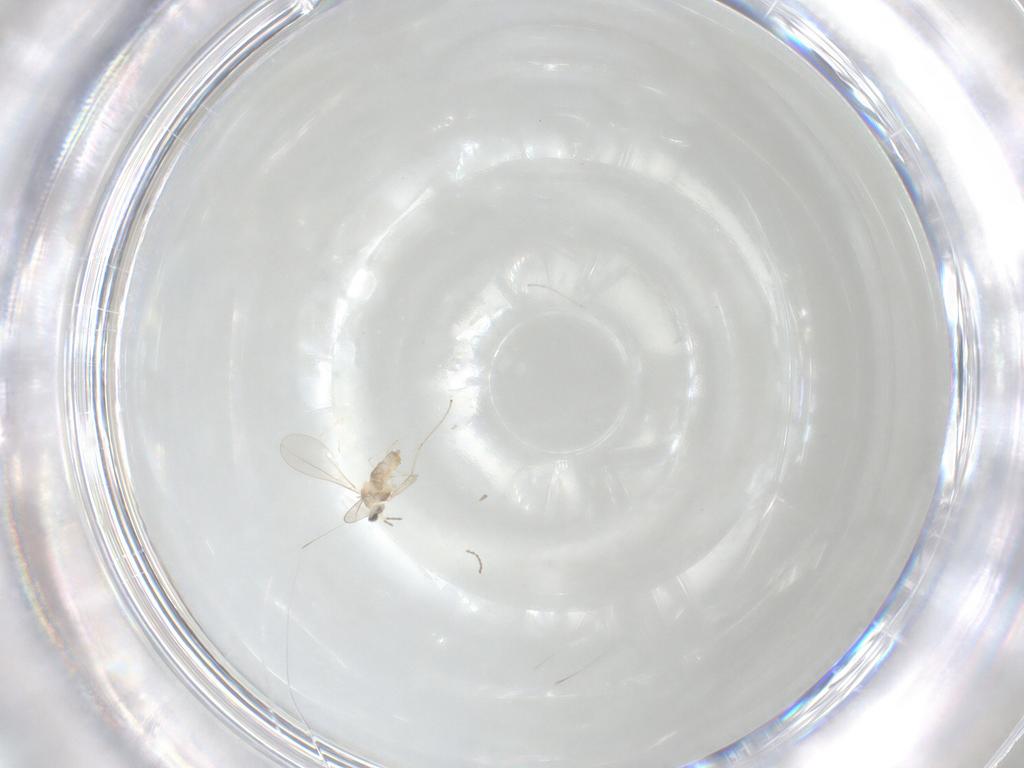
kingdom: Animalia
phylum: Arthropoda
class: Insecta
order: Diptera
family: Cecidomyiidae
